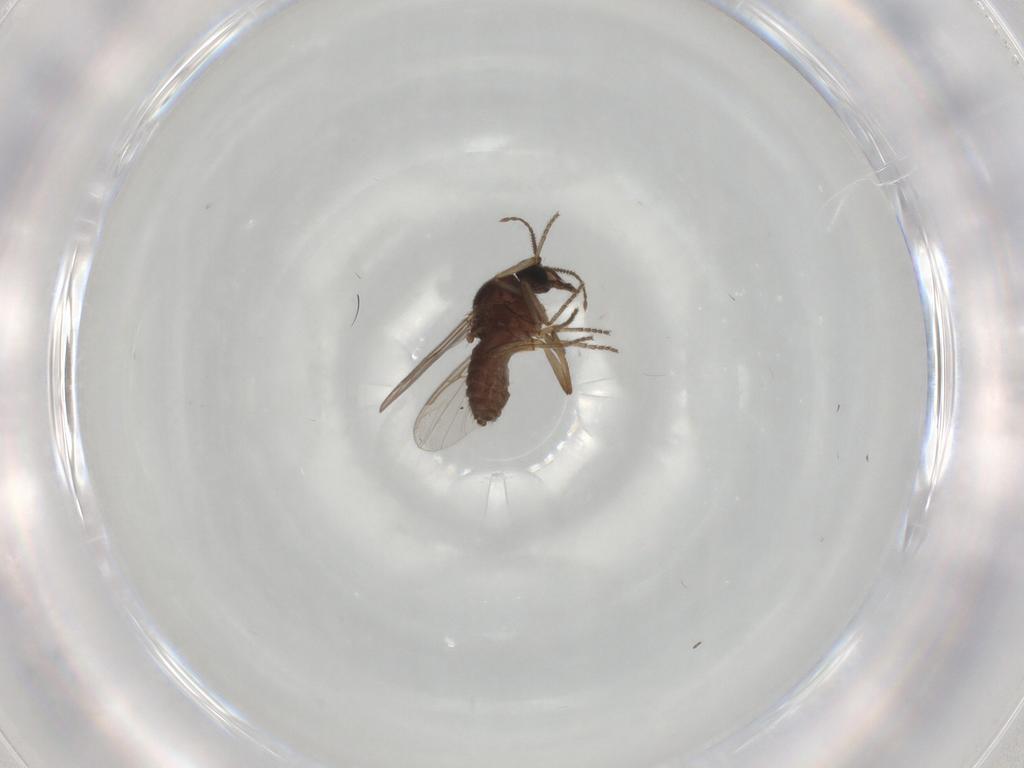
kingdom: Animalia
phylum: Arthropoda
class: Insecta
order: Diptera
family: Ceratopogonidae
